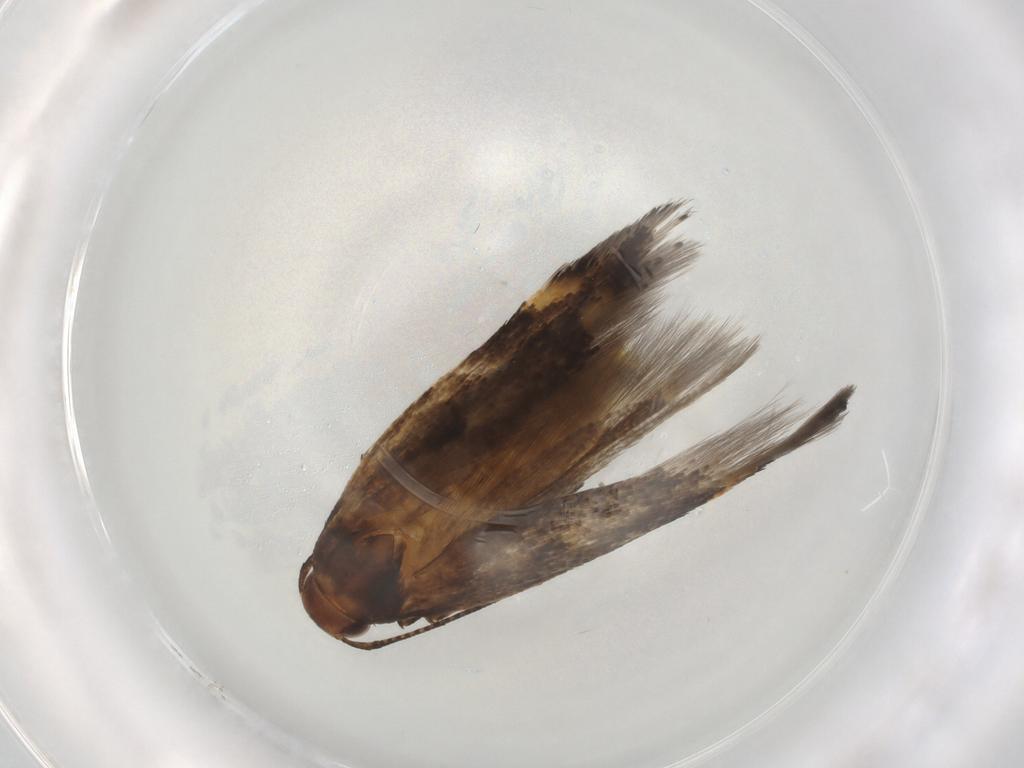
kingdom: Animalia
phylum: Arthropoda
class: Insecta
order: Lepidoptera
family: Gelechiidae
